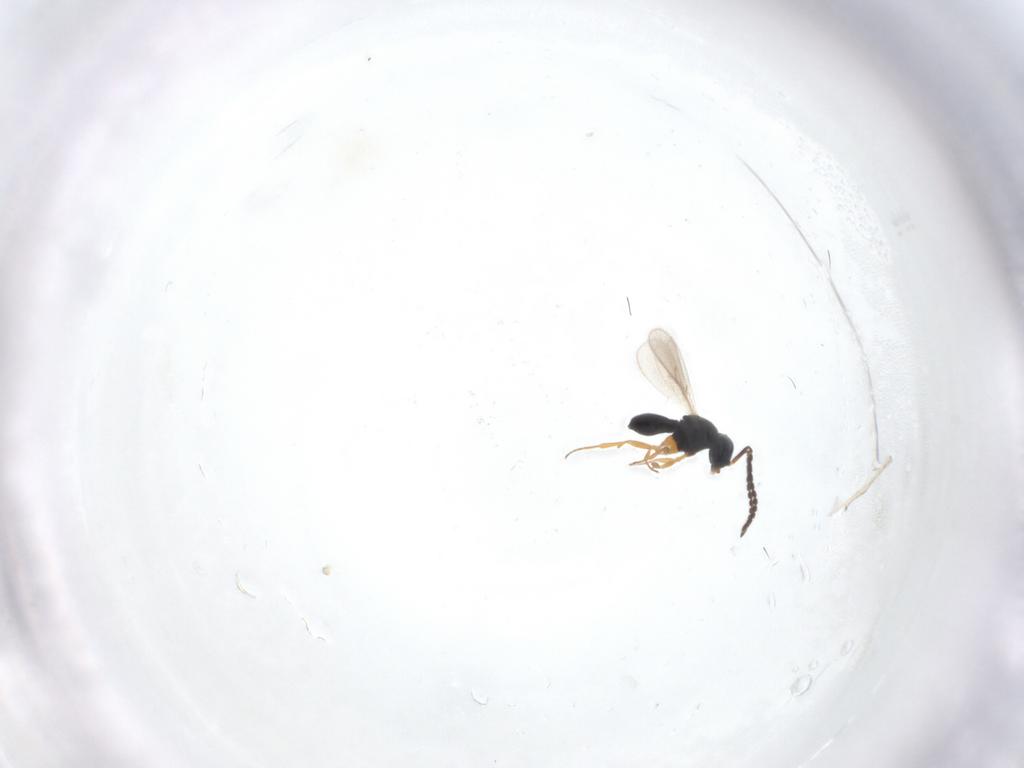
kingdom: Animalia
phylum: Arthropoda
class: Insecta
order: Hymenoptera
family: Scelionidae
